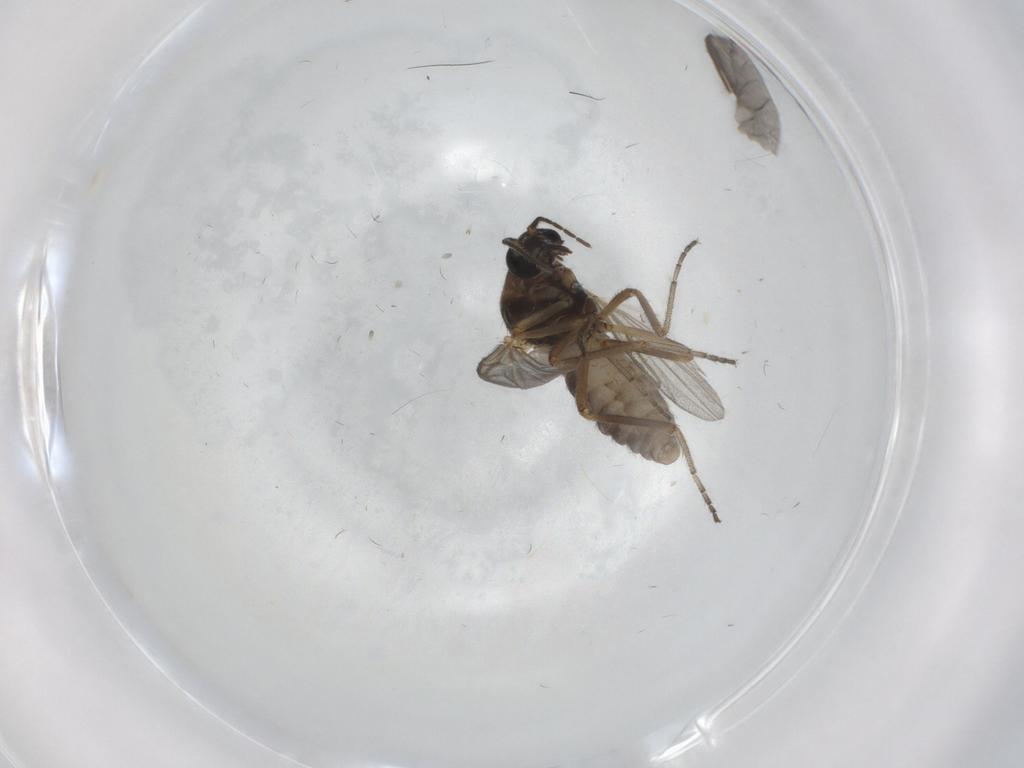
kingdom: Animalia
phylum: Arthropoda
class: Insecta
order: Diptera
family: Ceratopogonidae
